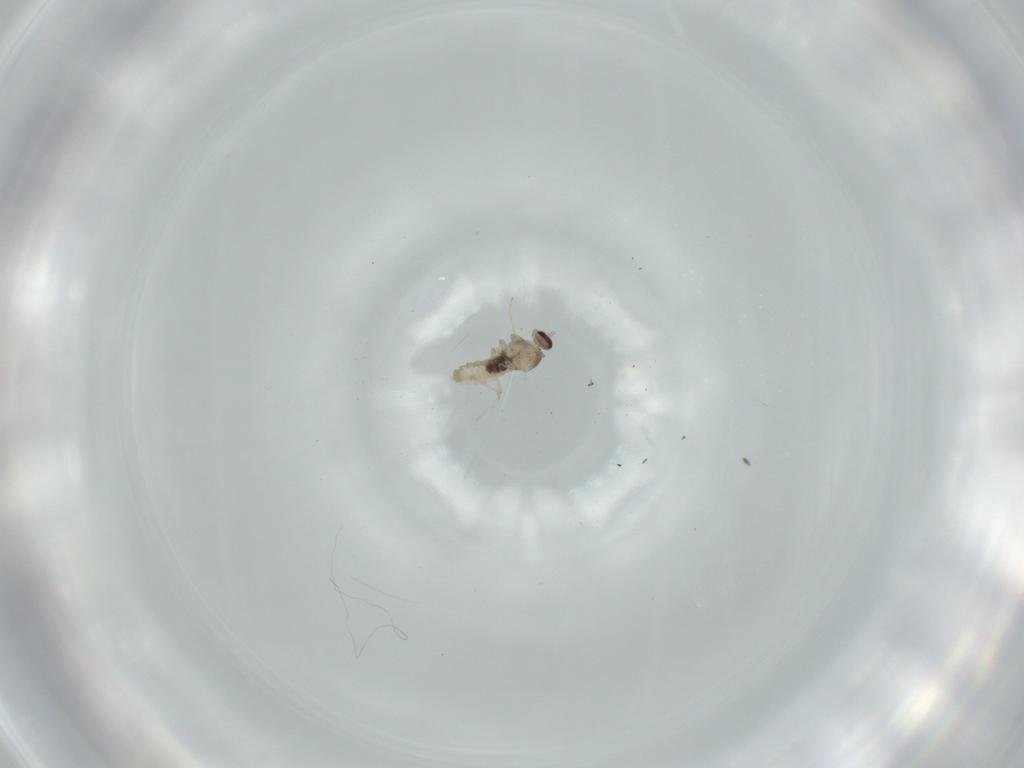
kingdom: Animalia
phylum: Arthropoda
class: Insecta
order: Diptera
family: Cecidomyiidae
